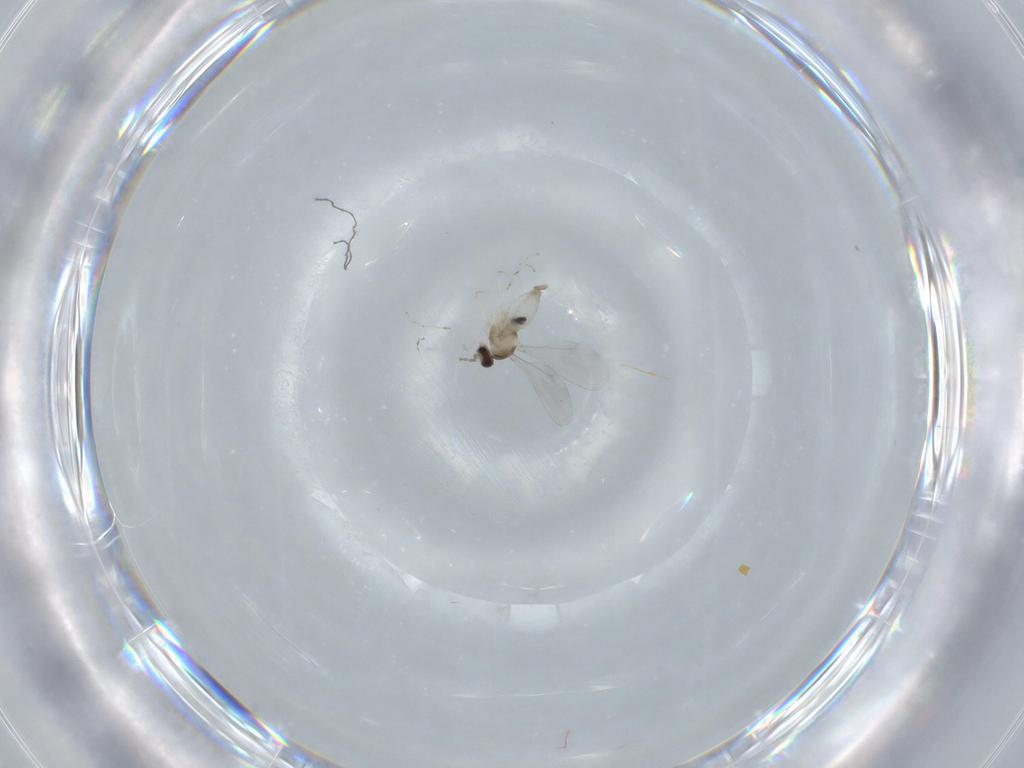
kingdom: Animalia
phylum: Arthropoda
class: Insecta
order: Diptera
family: Cecidomyiidae
